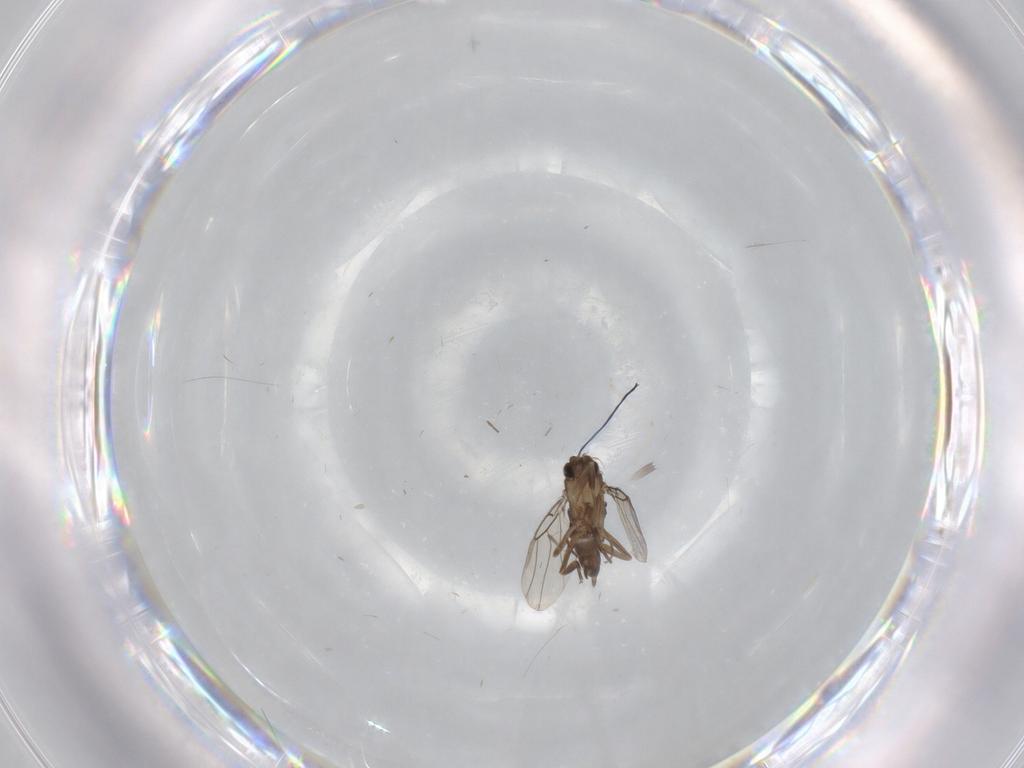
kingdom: Animalia
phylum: Arthropoda
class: Insecta
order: Diptera
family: Phoridae
